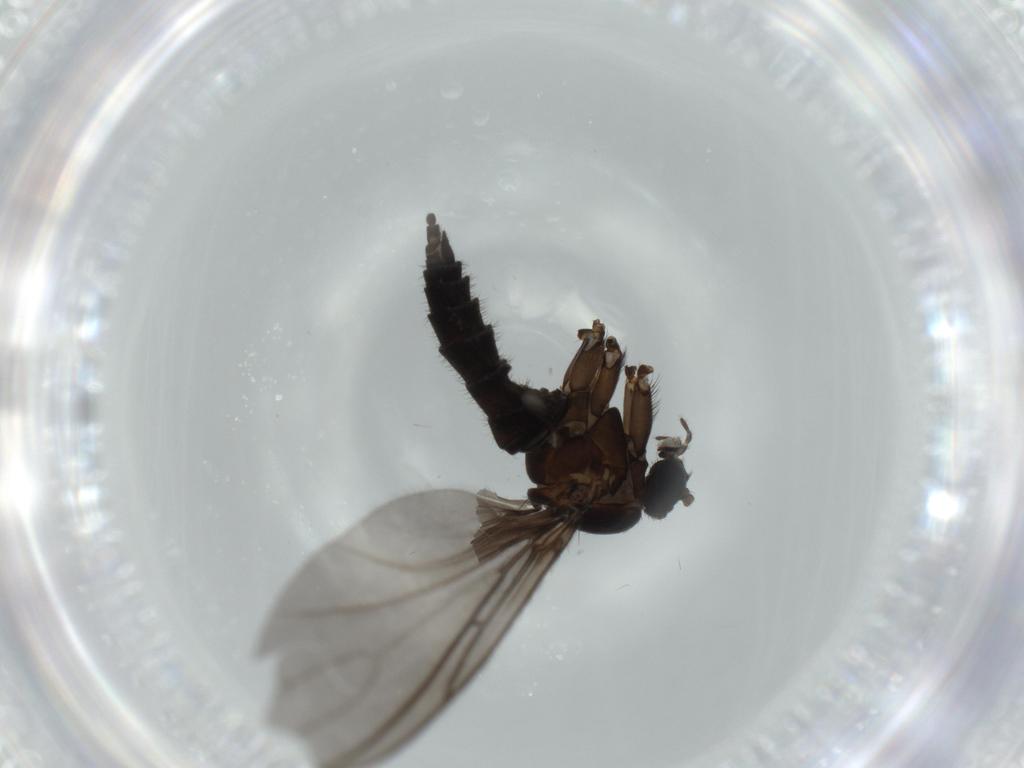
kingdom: Animalia
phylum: Arthropoda
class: Insecta
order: Diptera
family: Sciaridae
